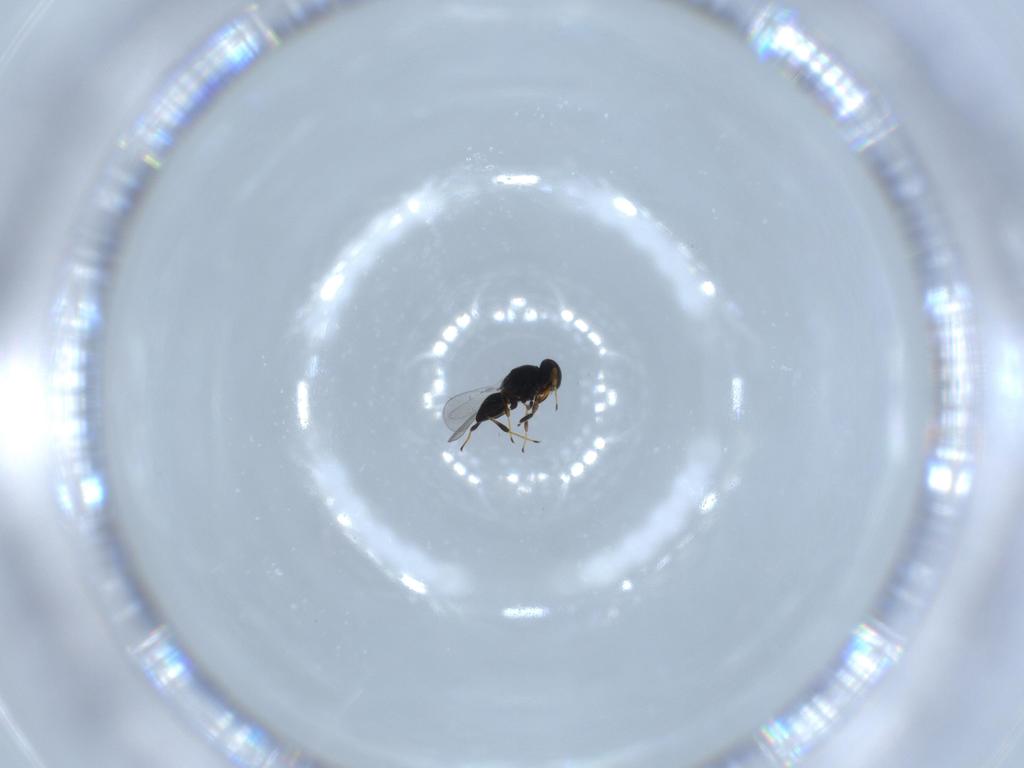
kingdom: Animalia
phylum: Arthropoda
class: Insecta
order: Hymenoptera
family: Platygastridae
